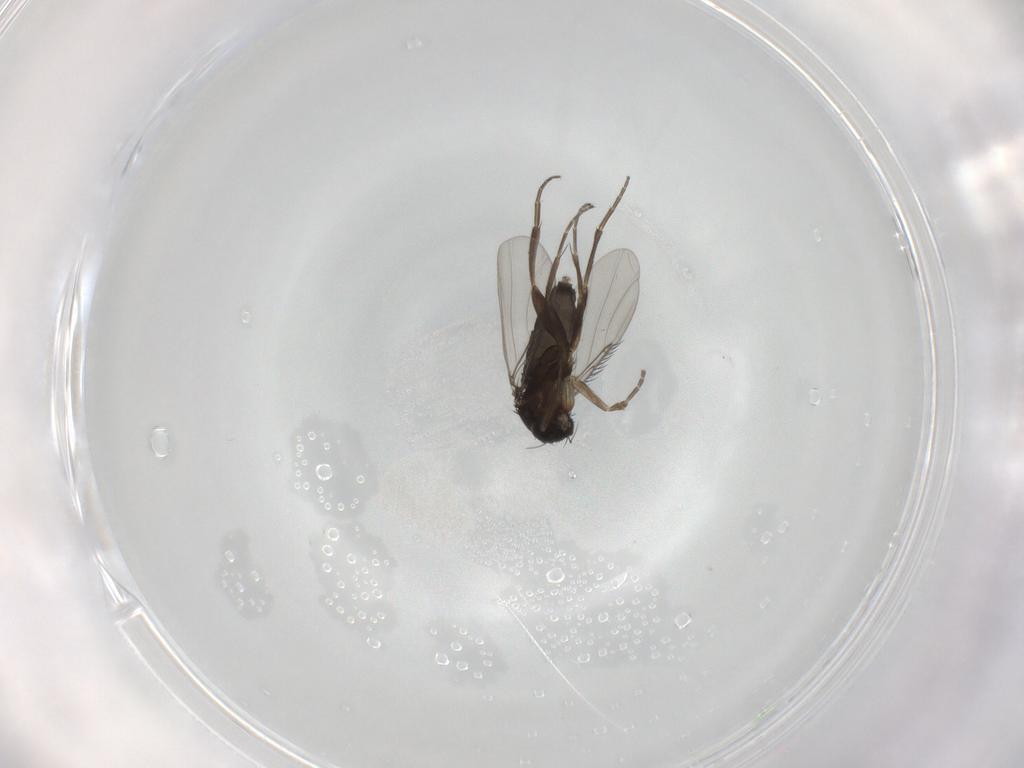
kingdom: Animalia
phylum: Arthropoda
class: Insecta
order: Diptera
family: Phoridae
